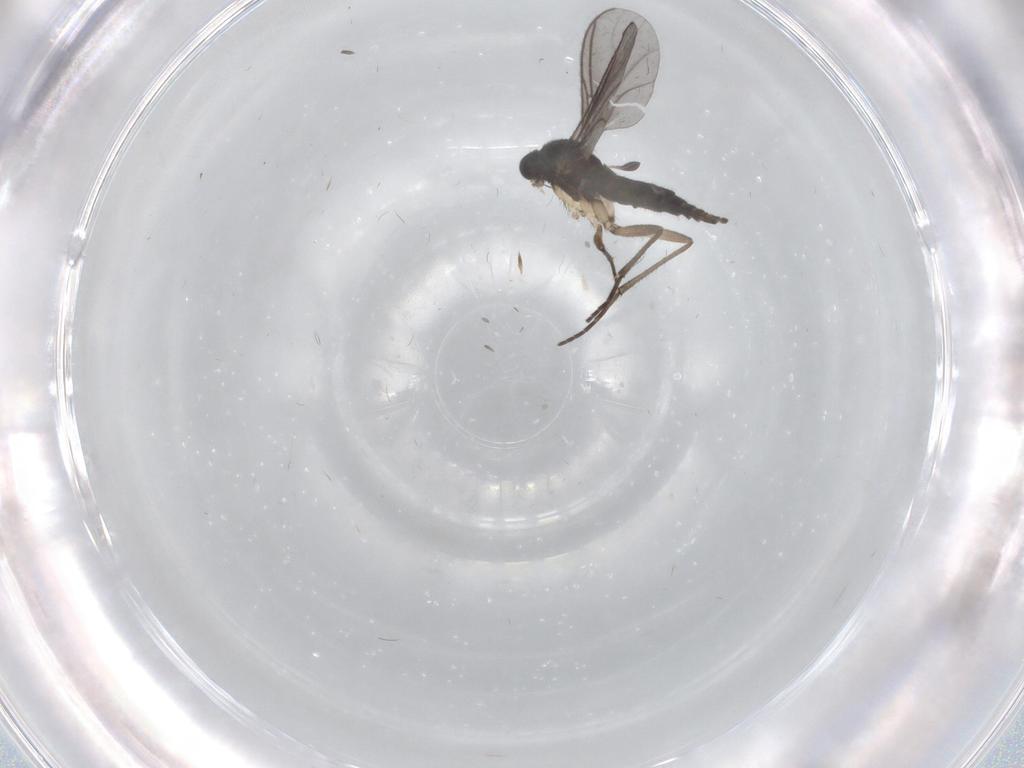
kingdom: Animalia
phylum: Arthropoda
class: Insecta
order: Diptera
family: Sciaridae
